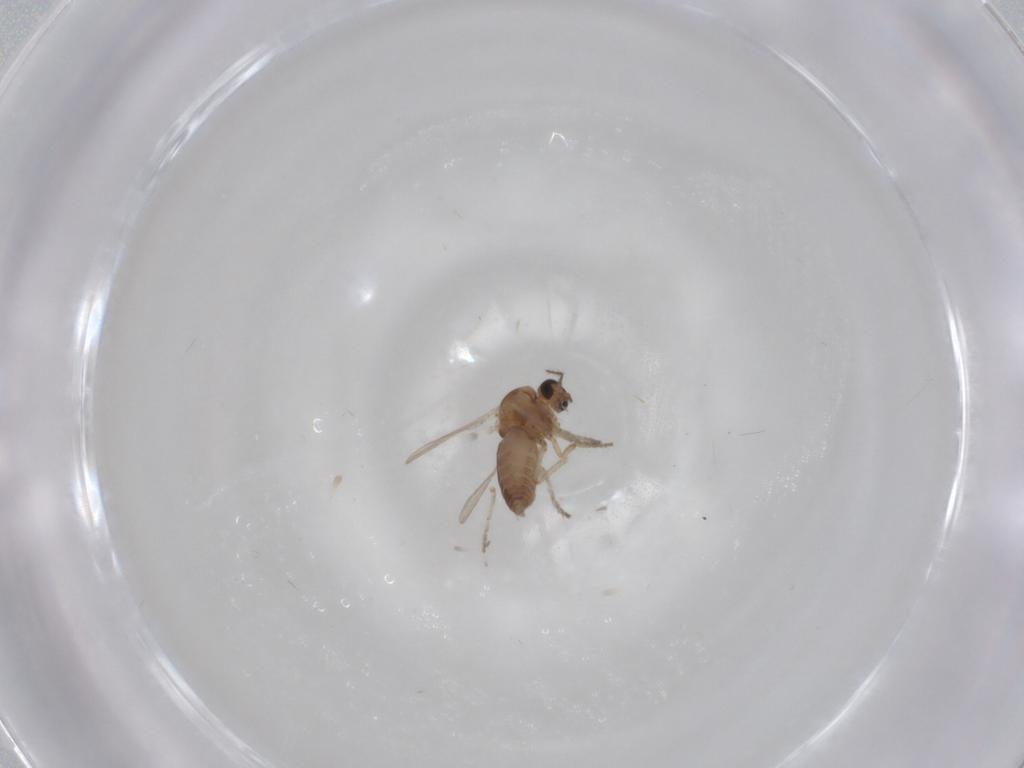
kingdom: Animalia
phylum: Arthropoda
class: Insecta
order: Diptera
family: Ceratopogonidae
